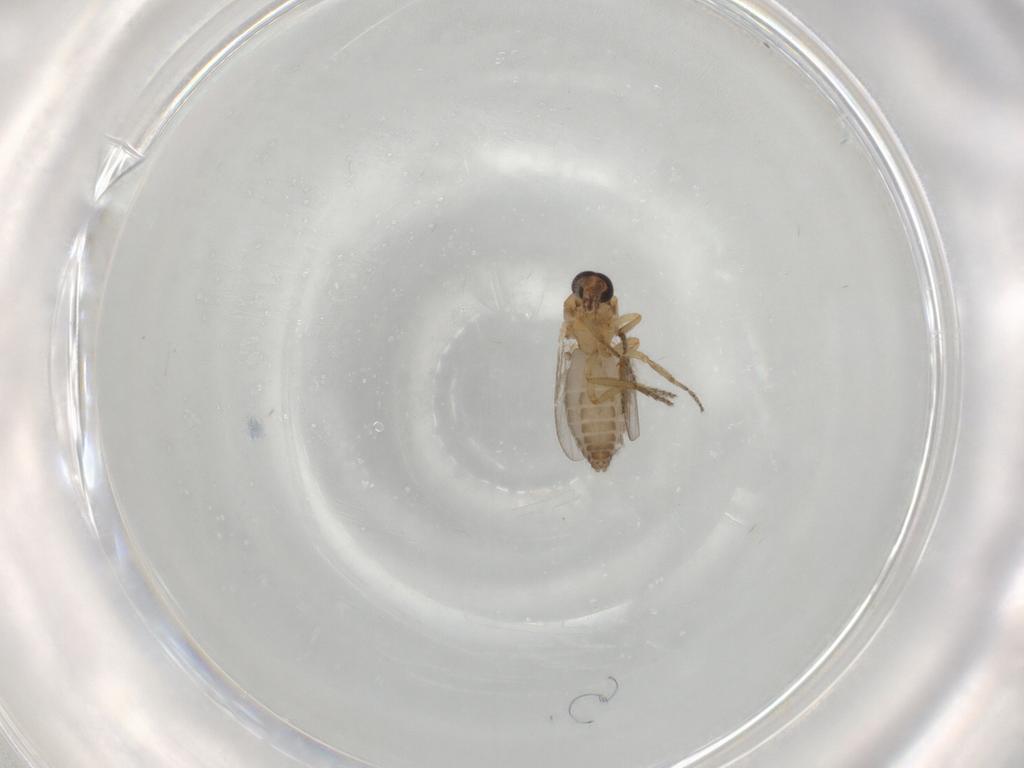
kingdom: Animalia
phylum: Arthropoda
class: Insecta
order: Diptera
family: Ceratopogonidae
